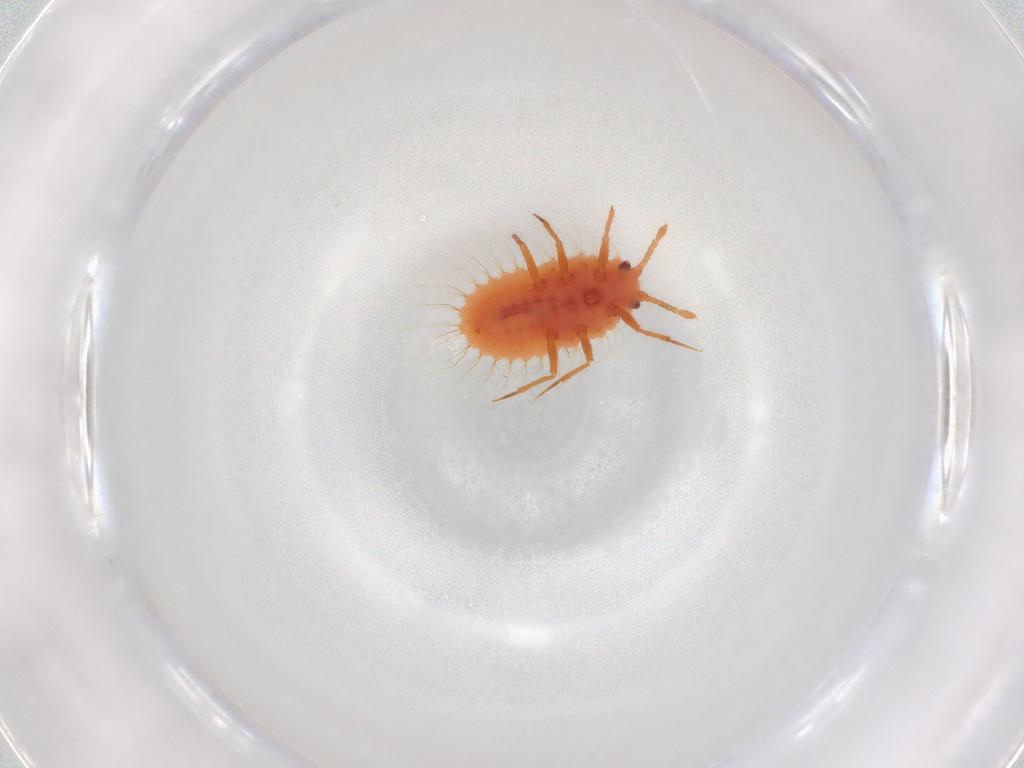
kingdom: Animalia
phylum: Arthropoda
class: Insecta
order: Hemiptera
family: Coccoidea_incertae_sedis
